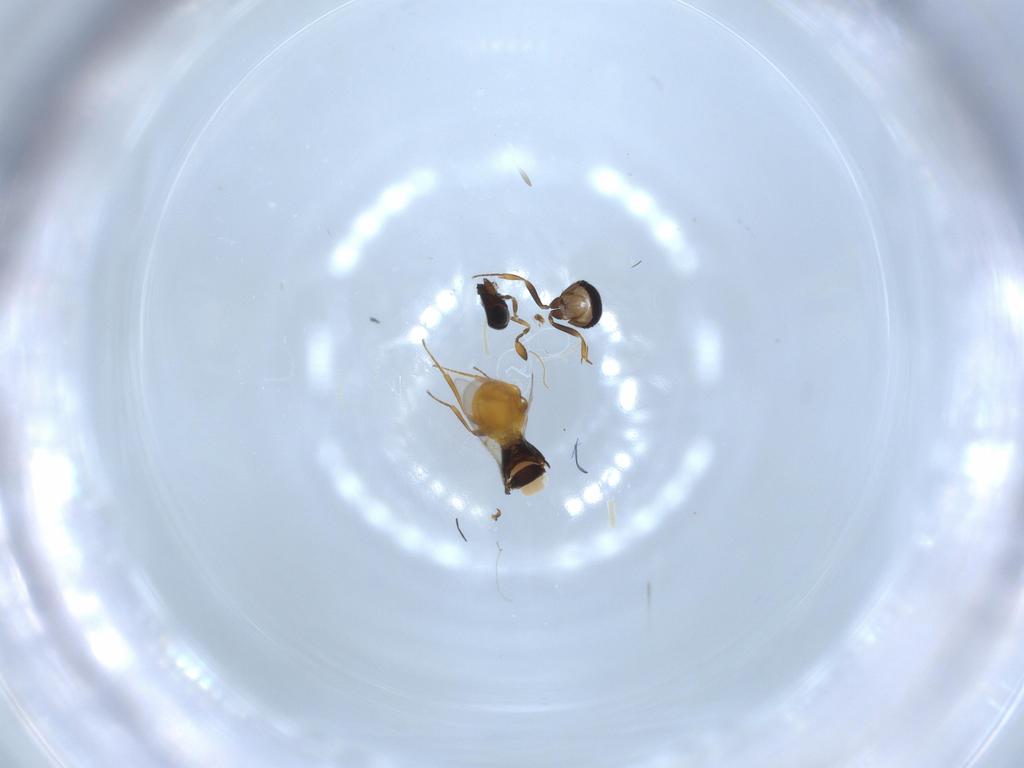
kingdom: Animalia
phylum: Arthropoda
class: Insecta
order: Hymenoptera
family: Scelionidae
